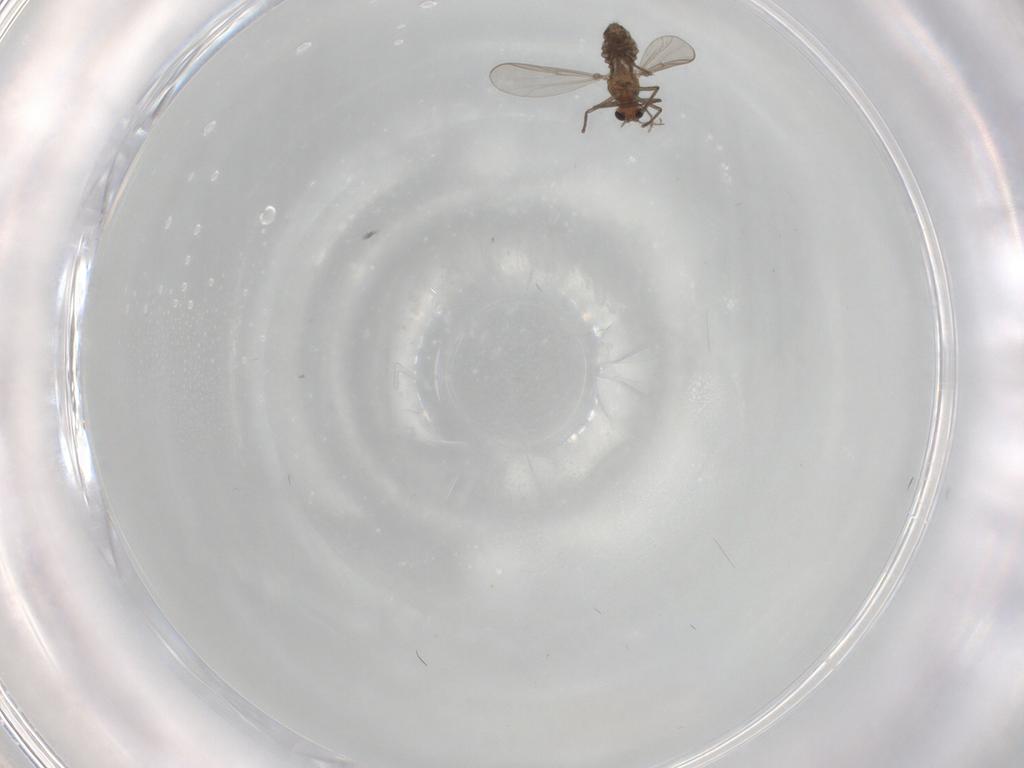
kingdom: Animalia
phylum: Arthropoda
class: Insecta
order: Diptera
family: Chironomidae
